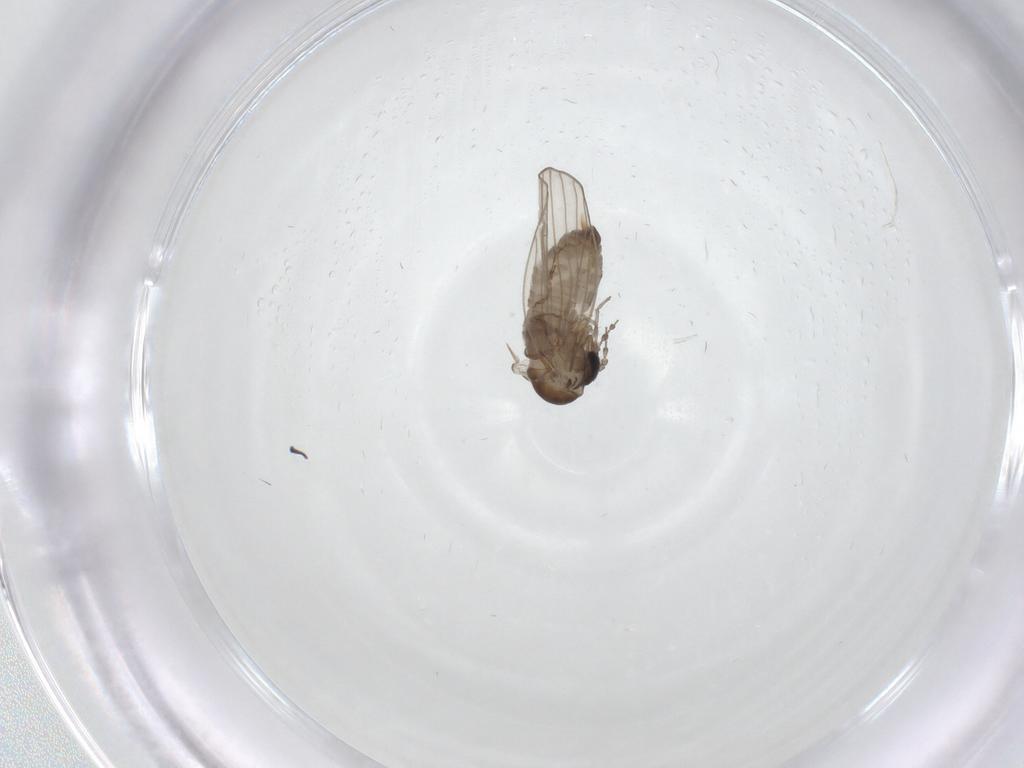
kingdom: Animalia
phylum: Arthropoda
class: Insecta
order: Diptera
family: Psychodidae
